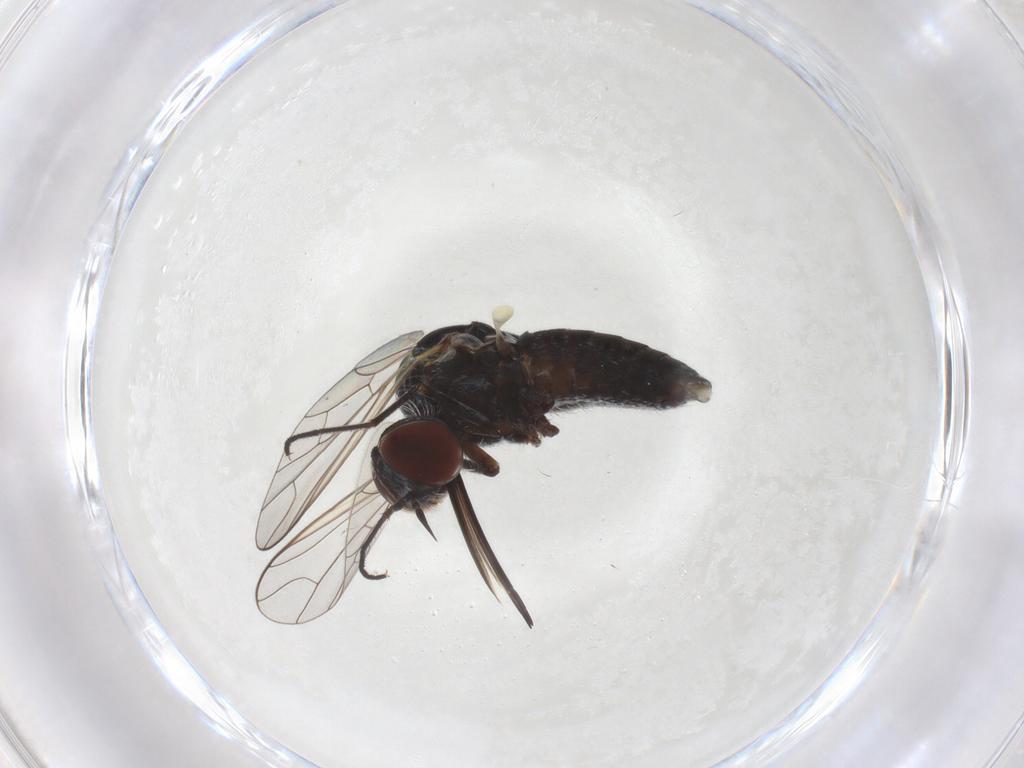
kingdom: Animalia
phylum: Arthropoda
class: Insecta
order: Diptera
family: Bombyliidae
